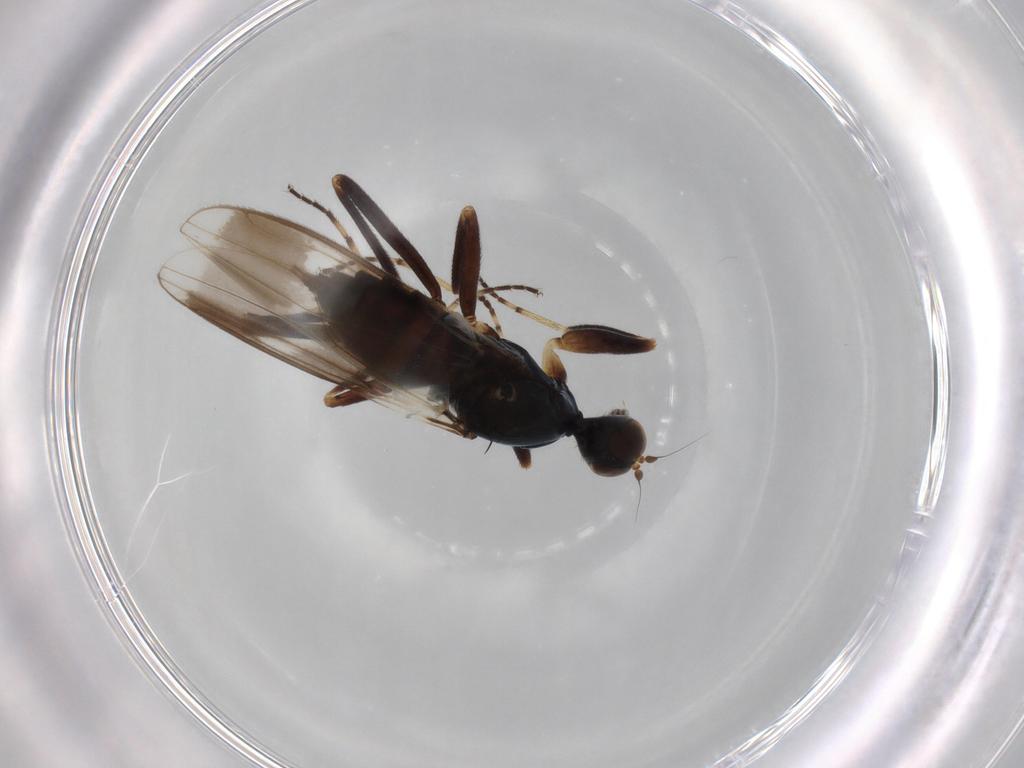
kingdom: Animalia
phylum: Arthropoda
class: Insecta
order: Diptera
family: Hybotidae
